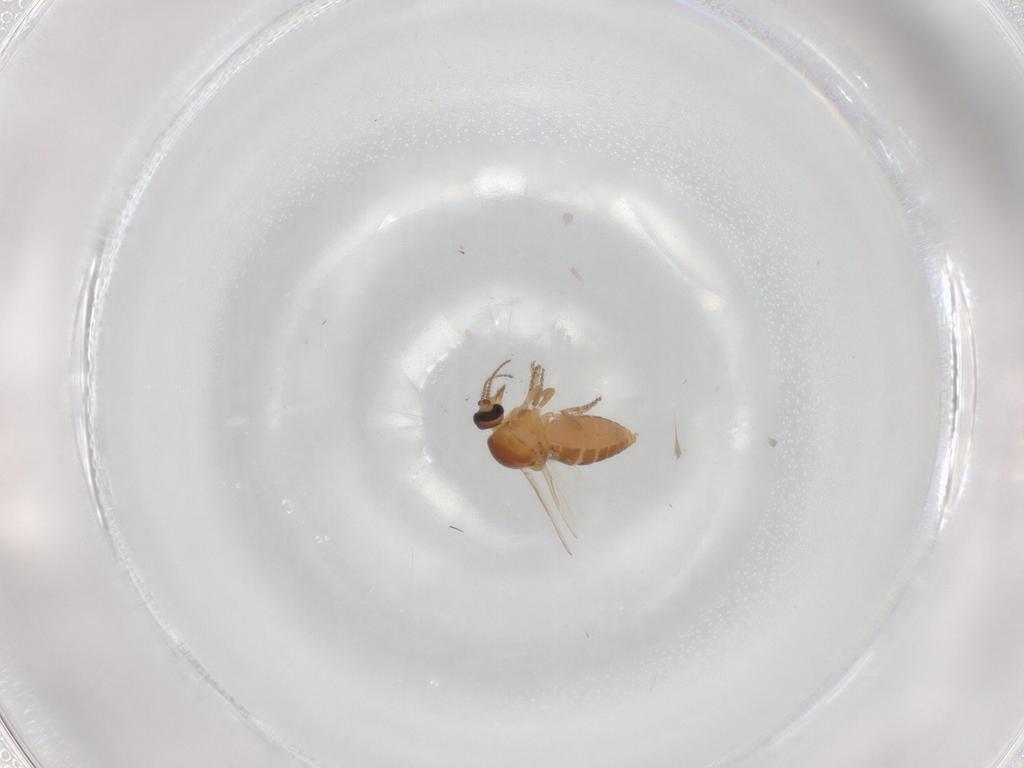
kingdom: Animalia
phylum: Arthropoda
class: Insecta
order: Diptera
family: Ceratopogonidae
